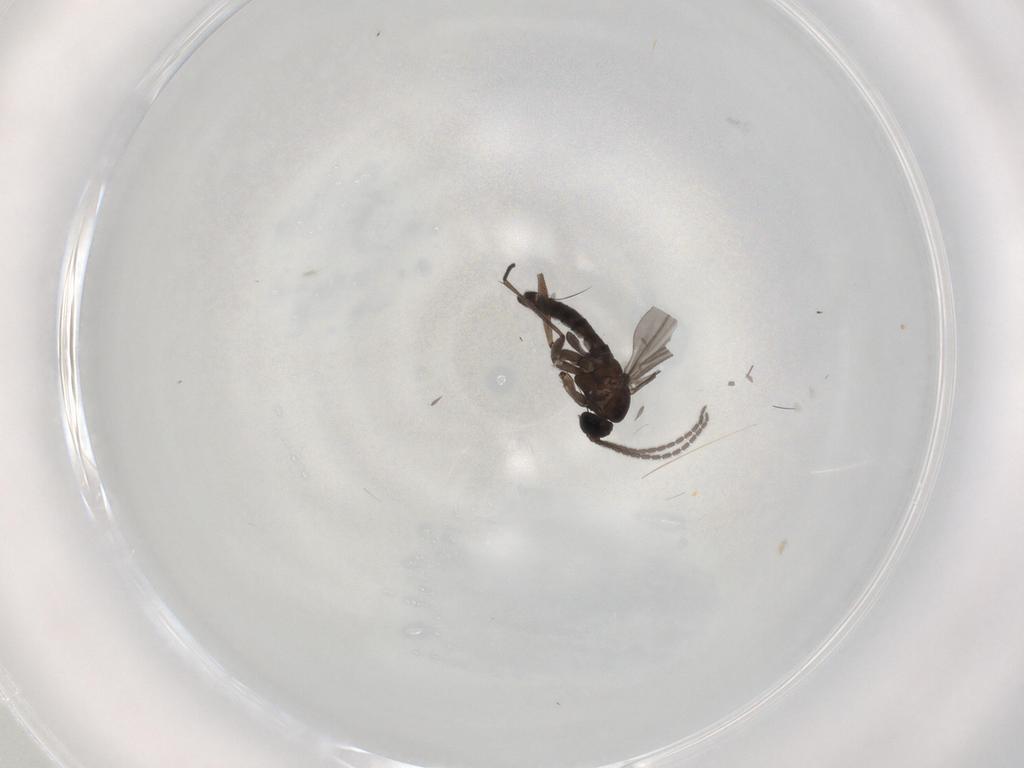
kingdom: Animalia
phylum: Arthropoda
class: Insecta
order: Diptera
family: Sciaridae
